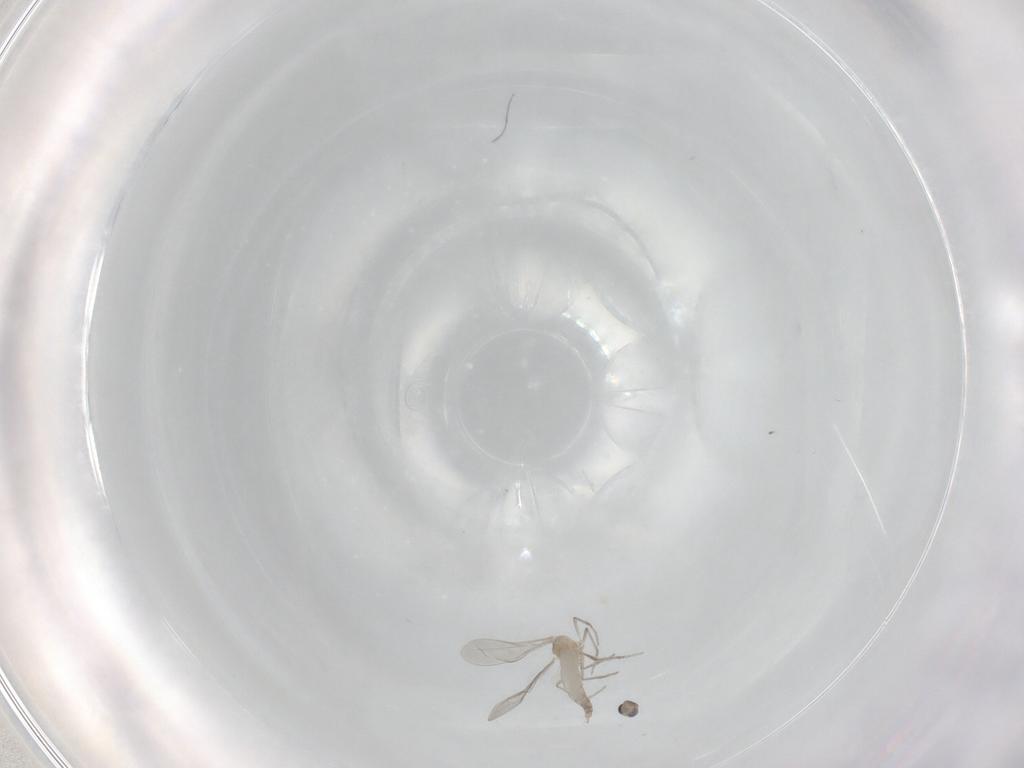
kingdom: Animalia
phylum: Arthropoda
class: Insecta
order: Diptera
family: Cecidomyiidae
